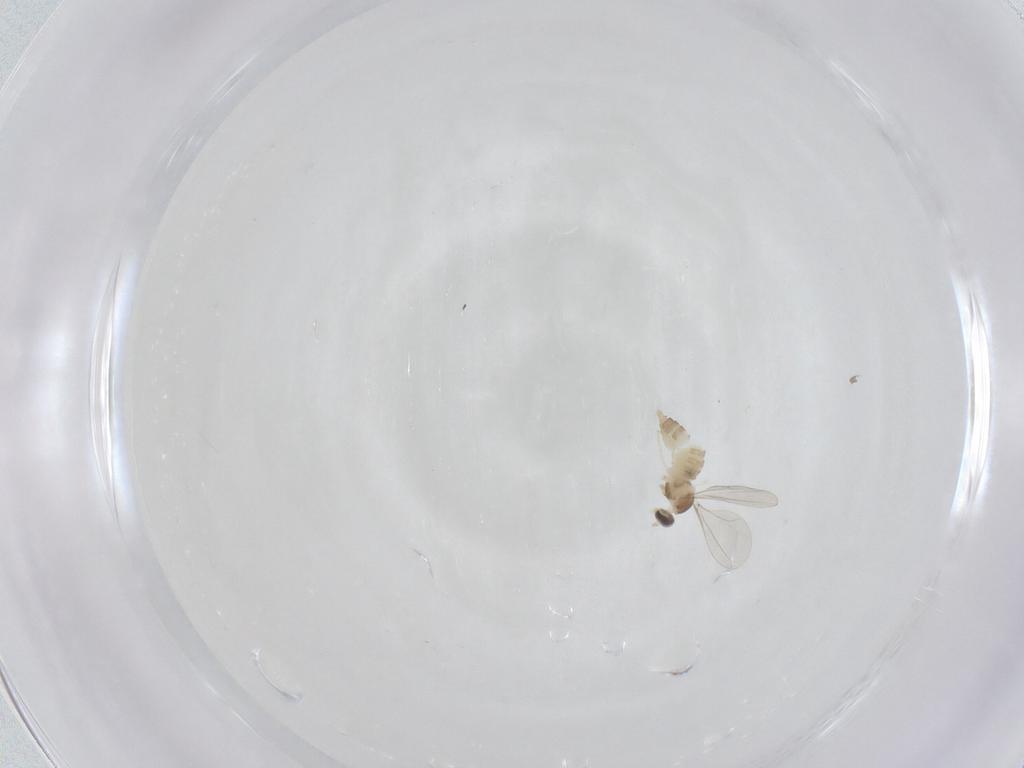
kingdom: Animalia
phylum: Arthropoda
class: Insecta
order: Diptera
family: Cecidomyiidae
